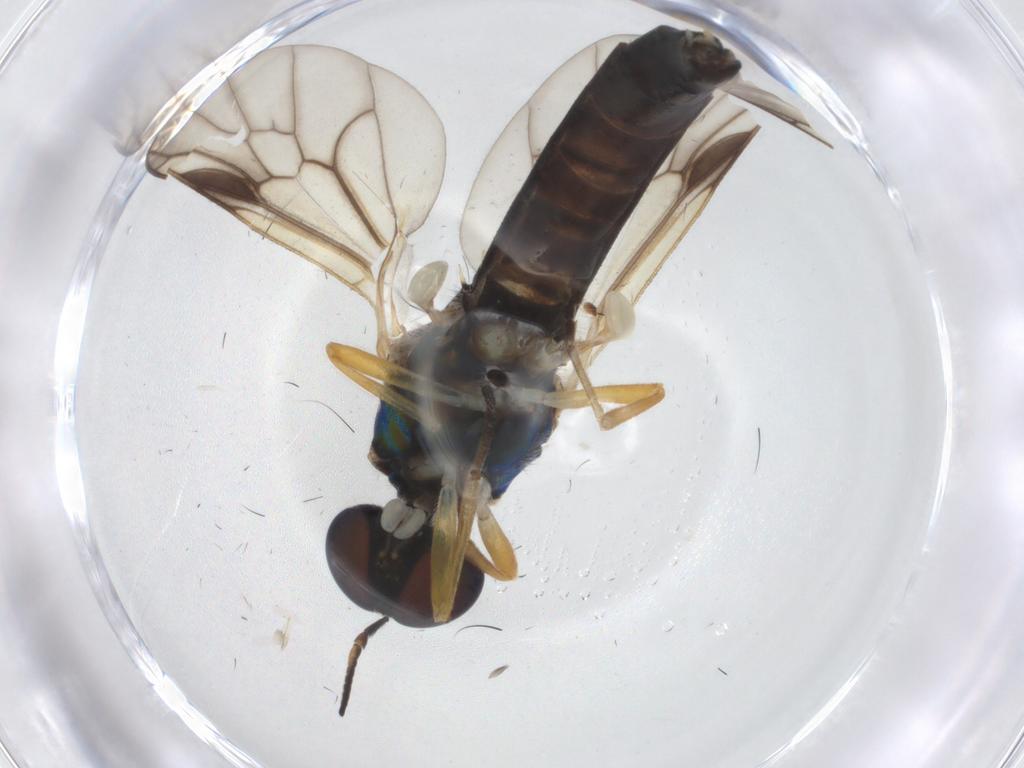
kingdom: Animalia
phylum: Arthropoda
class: Insecta
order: Diptera
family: Stratiomyidae
